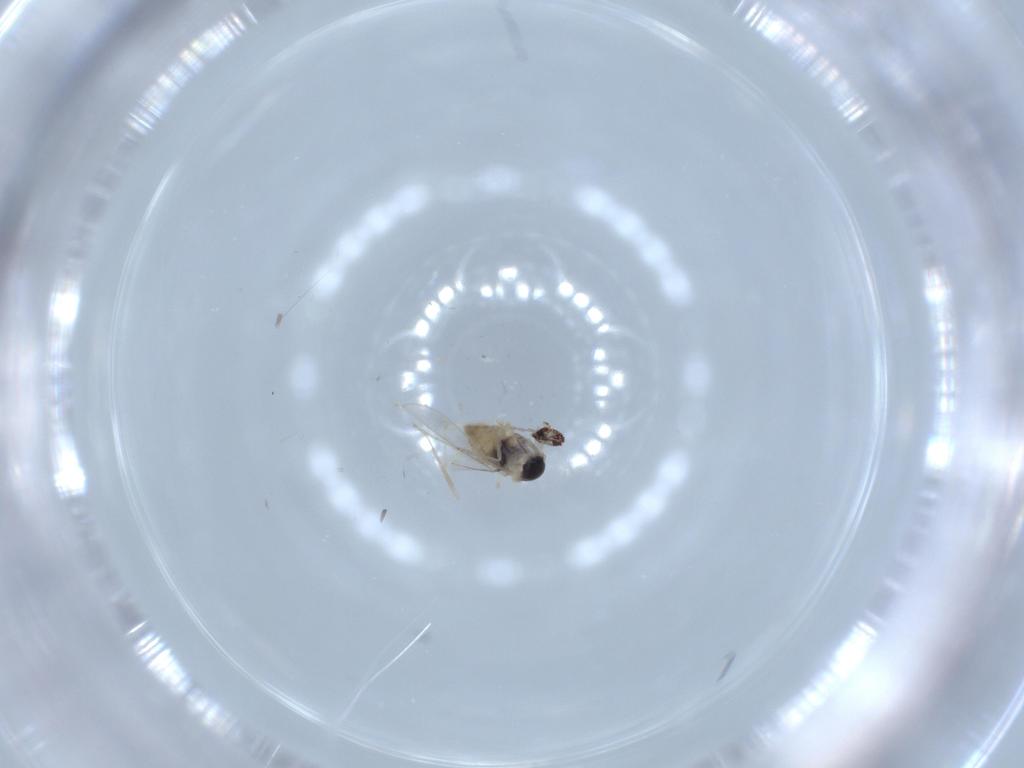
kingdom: Animalia
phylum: Arthropoda
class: Insecta
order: Diptera
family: Cecidomyiidae
